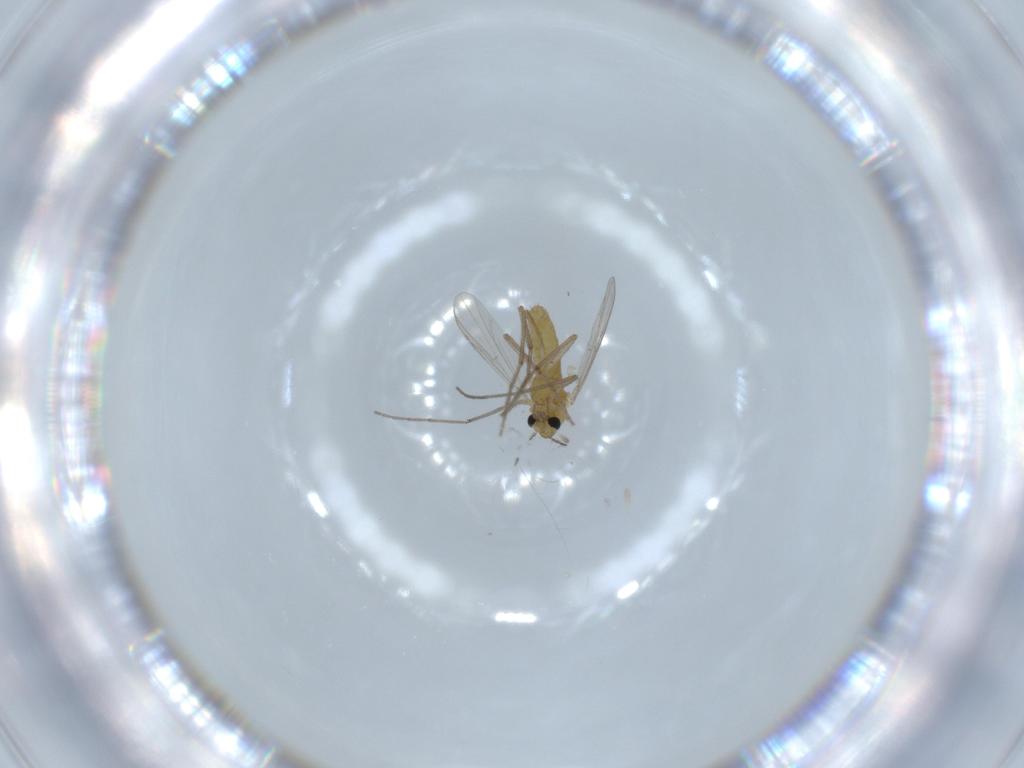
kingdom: Animalia
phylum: Arthropoda
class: Insecta
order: Diptera
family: Chironomidae
